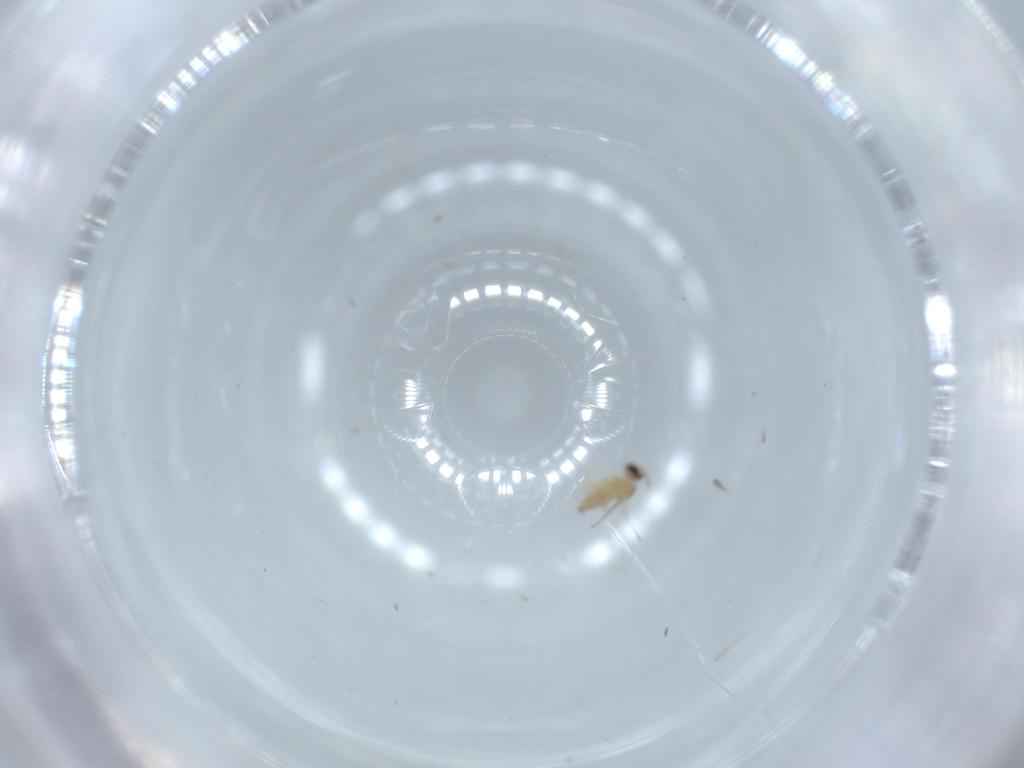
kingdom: Animalia
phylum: Arthropoda
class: Insecta
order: Diptera
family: Cecidomyiidae
